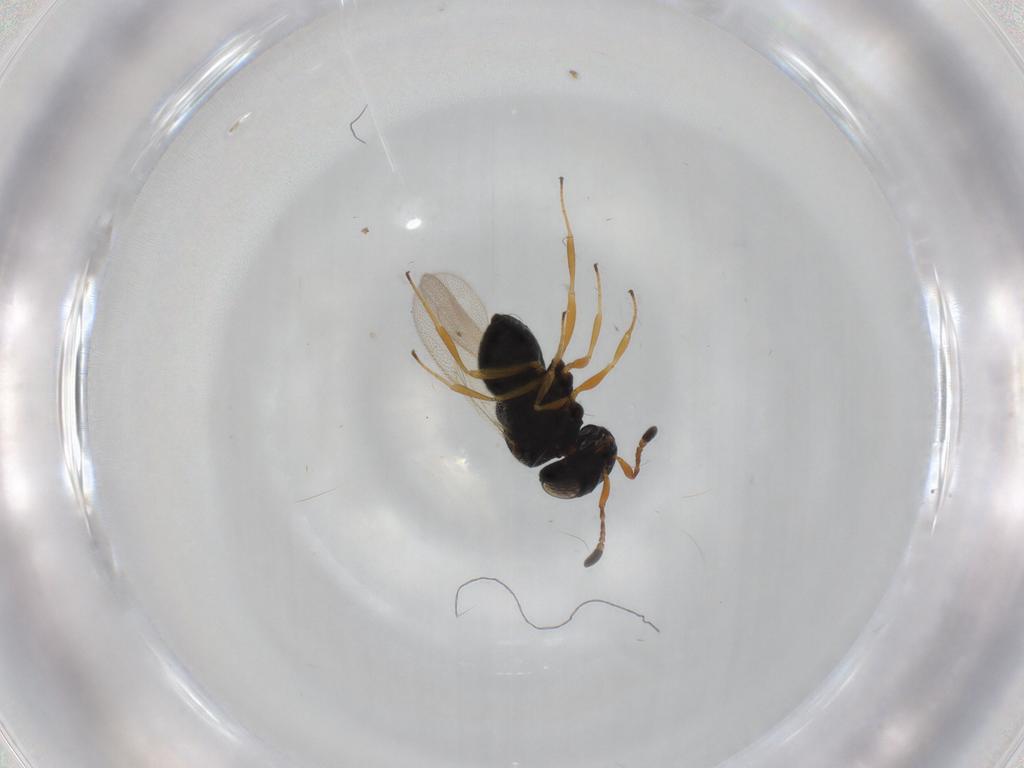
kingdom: Animalia
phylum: Arthropoda
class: Insecta
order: Hymenoptera
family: Scelionidae
